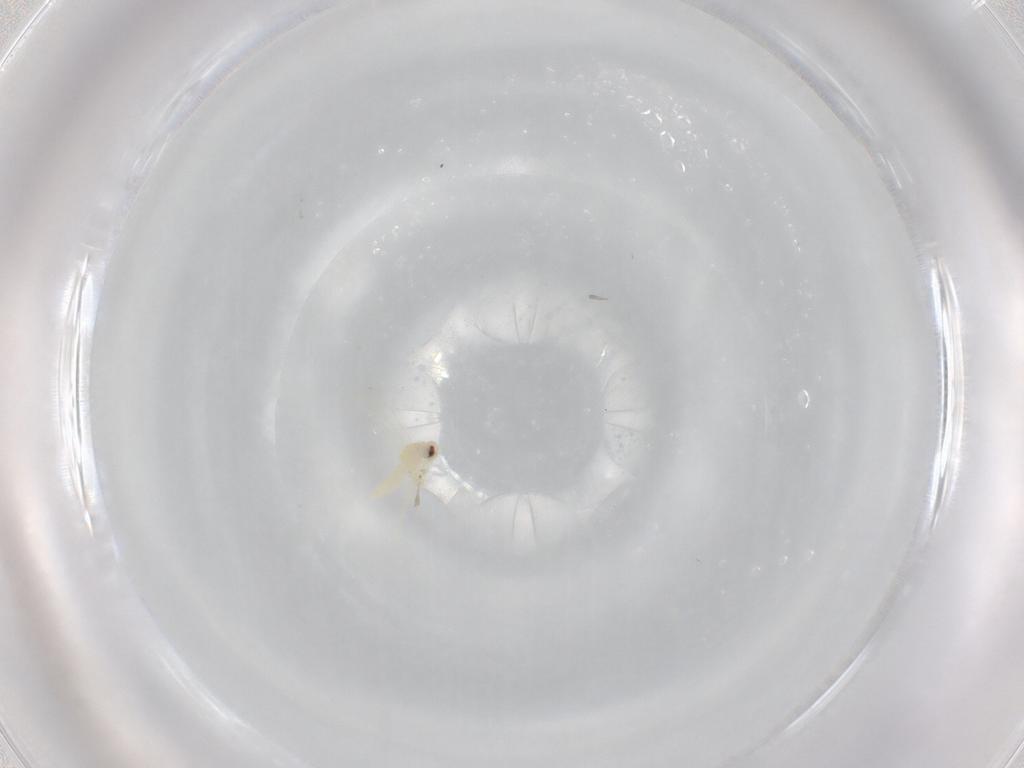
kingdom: Animalia
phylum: Arthropoda
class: Insecta
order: Hemiptera
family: Aleyrodidae
